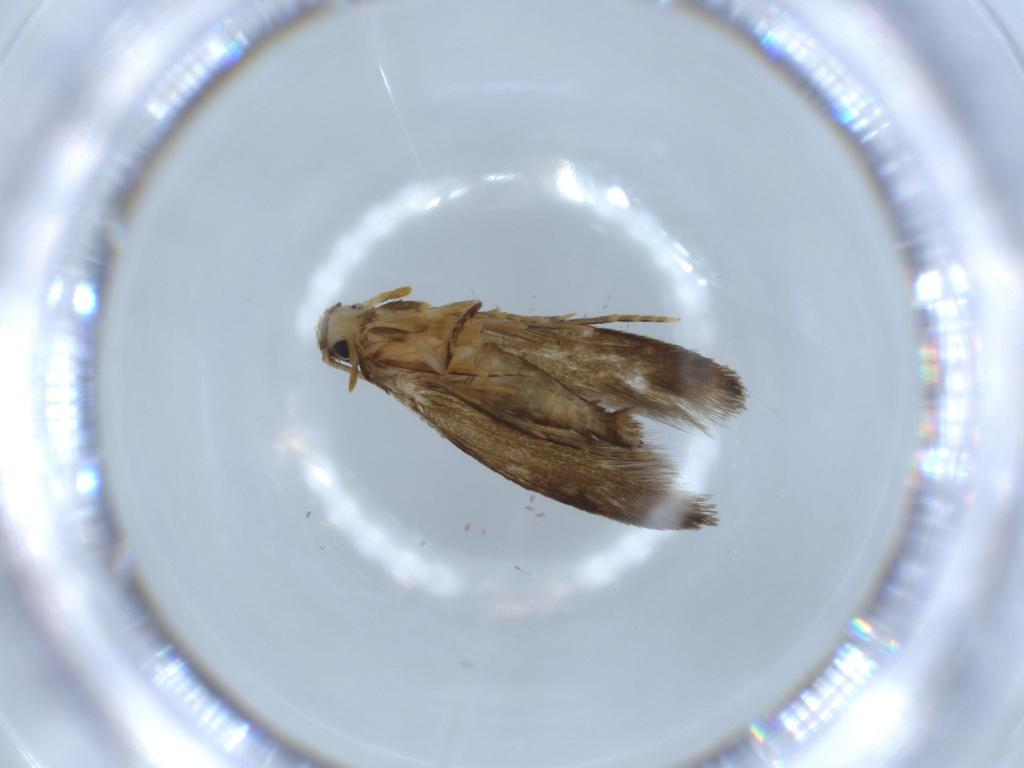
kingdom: Animalia
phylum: Arthropoda
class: Insecta
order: Lepidoptera
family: Tineidae
